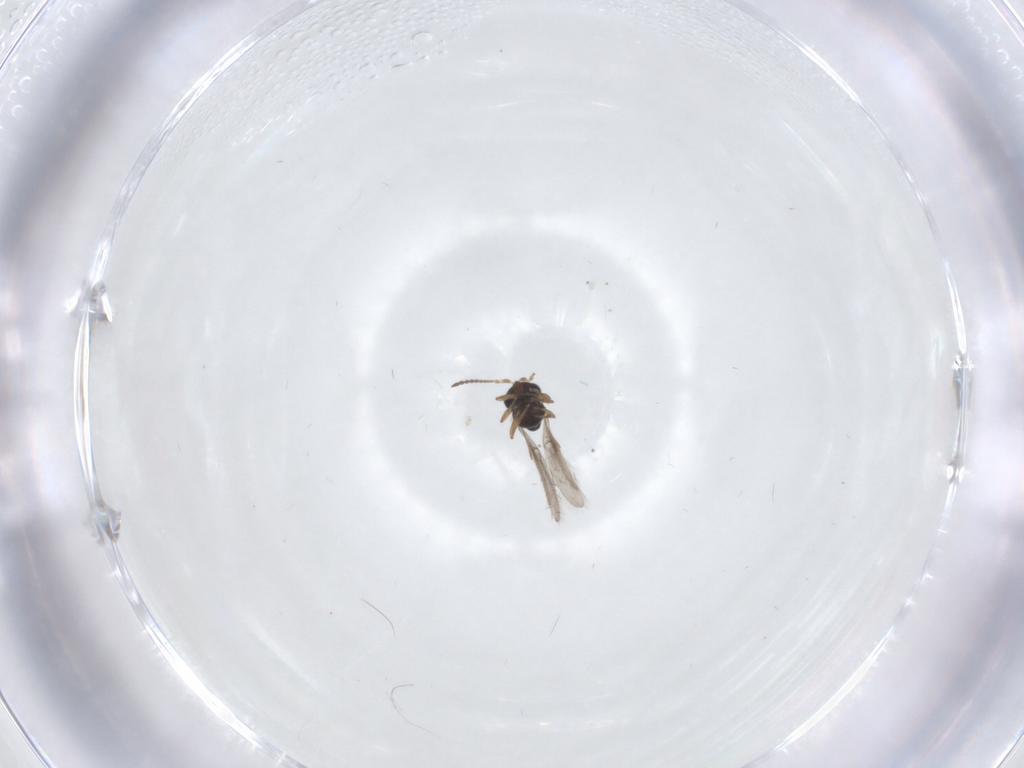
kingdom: Animalia
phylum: Arthropoda
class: Insecta
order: Hymenoptera
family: Scelionidae
